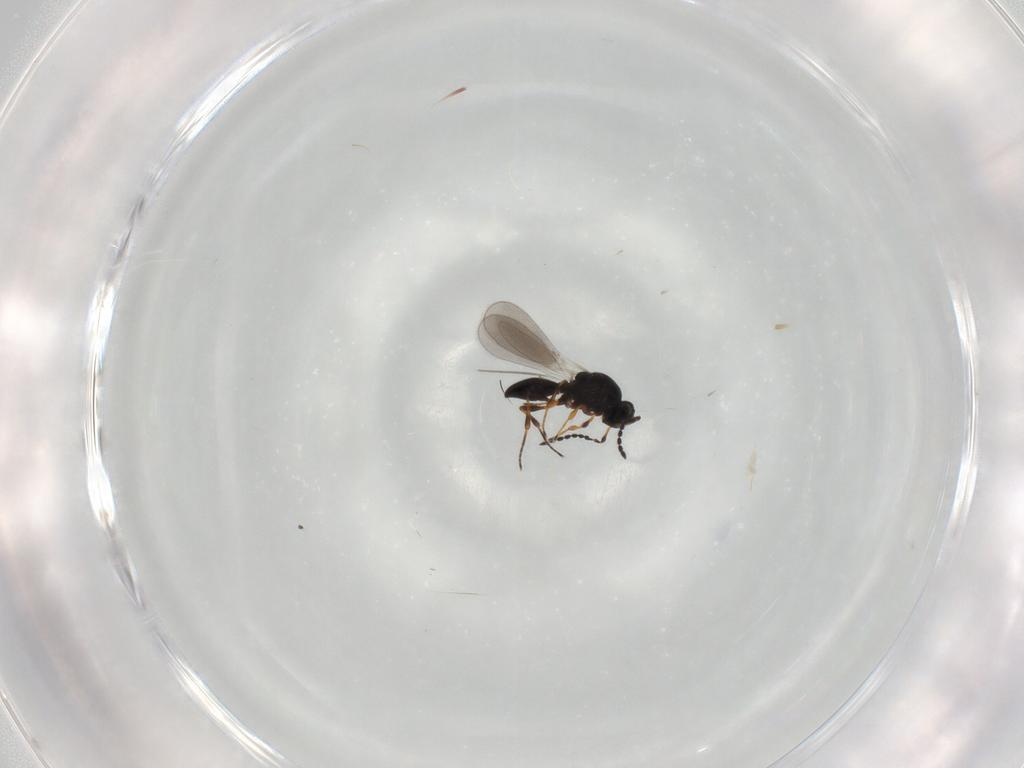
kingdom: Animalia
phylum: Arthropoda
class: Insecta
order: Hymenoptera
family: Platygastridae
